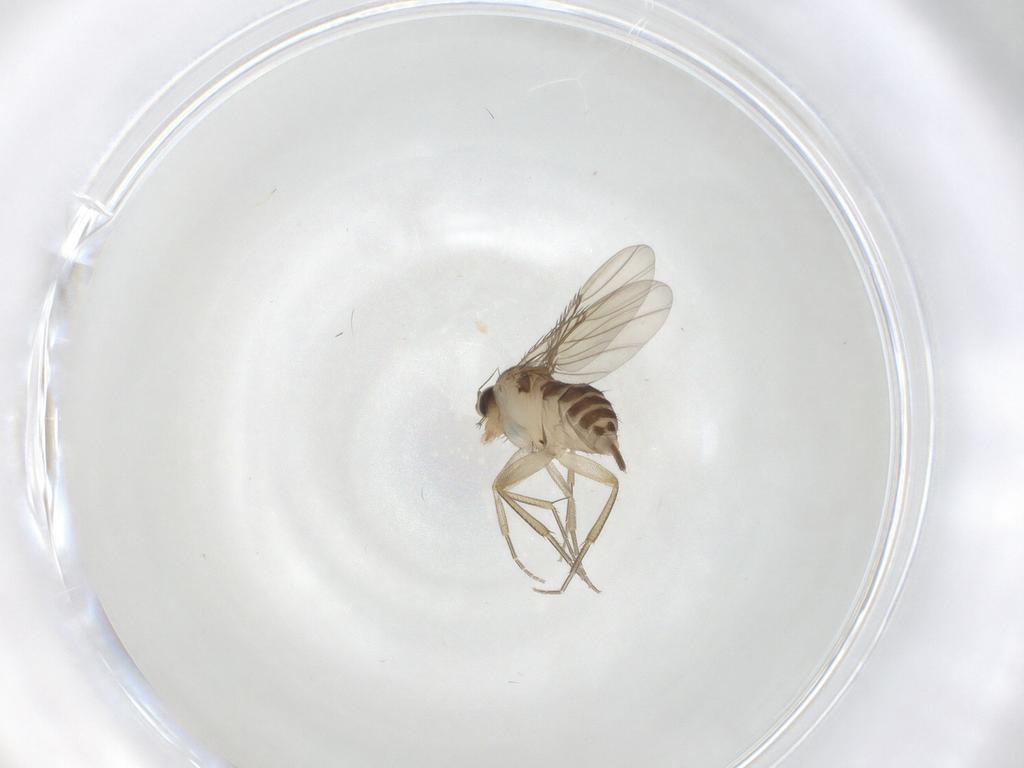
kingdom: Animalia
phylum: Arthropoda
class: Insecta
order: Diptera
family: Phoridae
